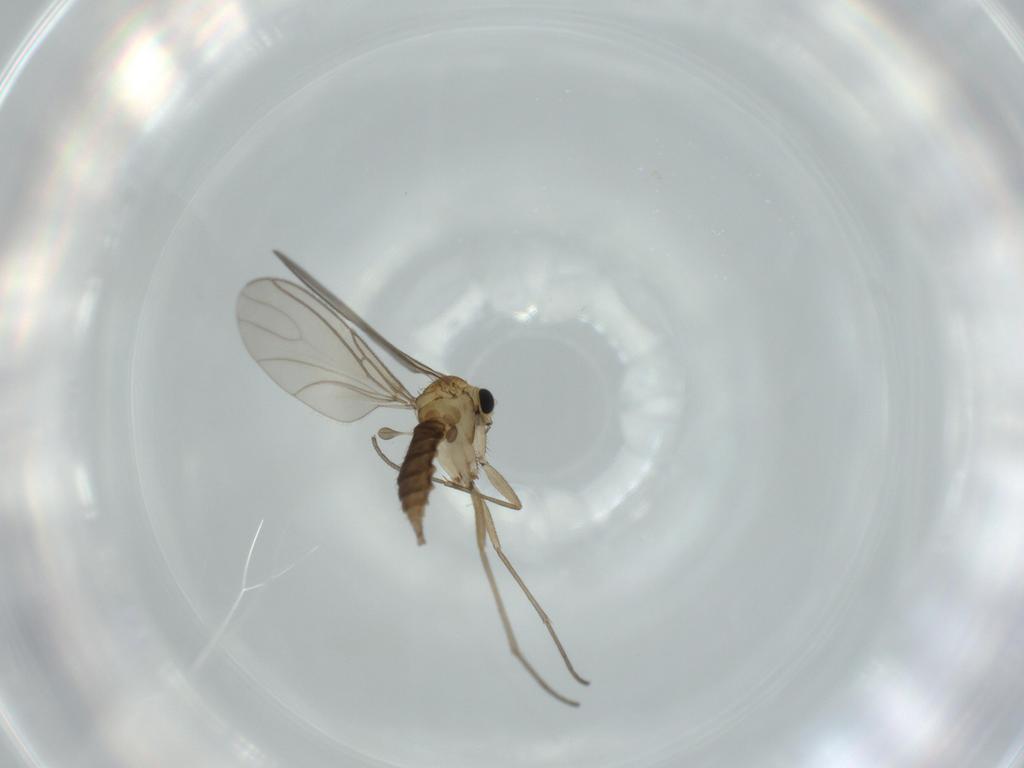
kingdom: Animalia
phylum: Arthropoda
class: Insecta
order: Diptera
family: Sciaridae
